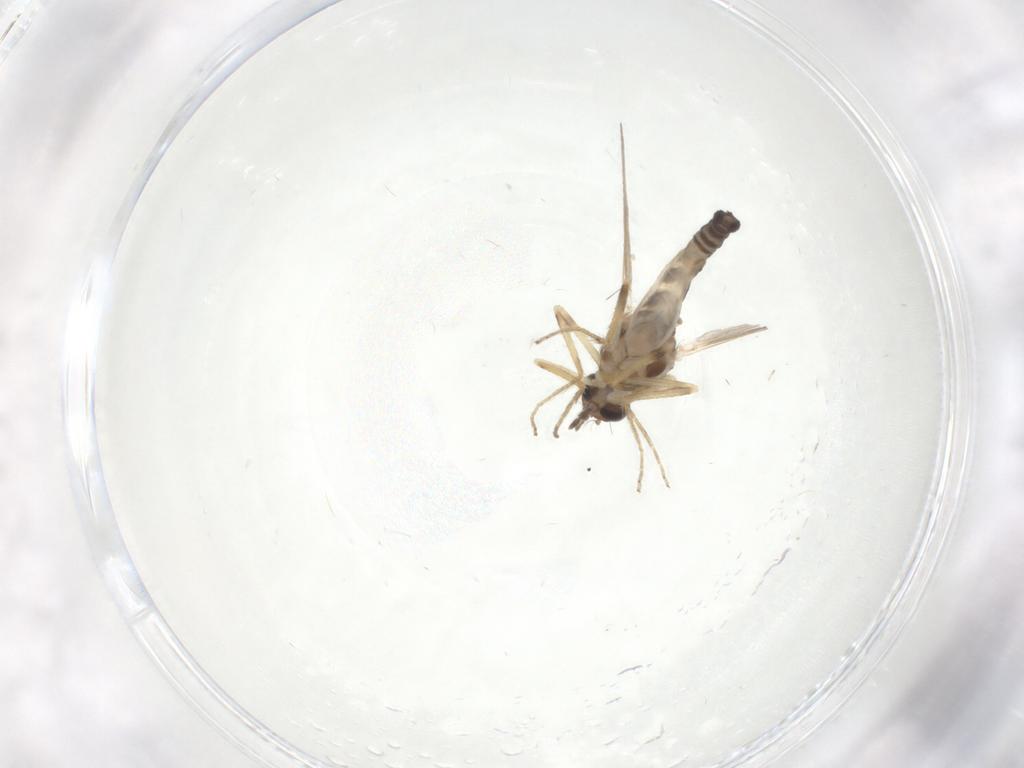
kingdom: Animalia
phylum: Arthropoda
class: Insecta
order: Diptera
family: Ceratopogonidae
